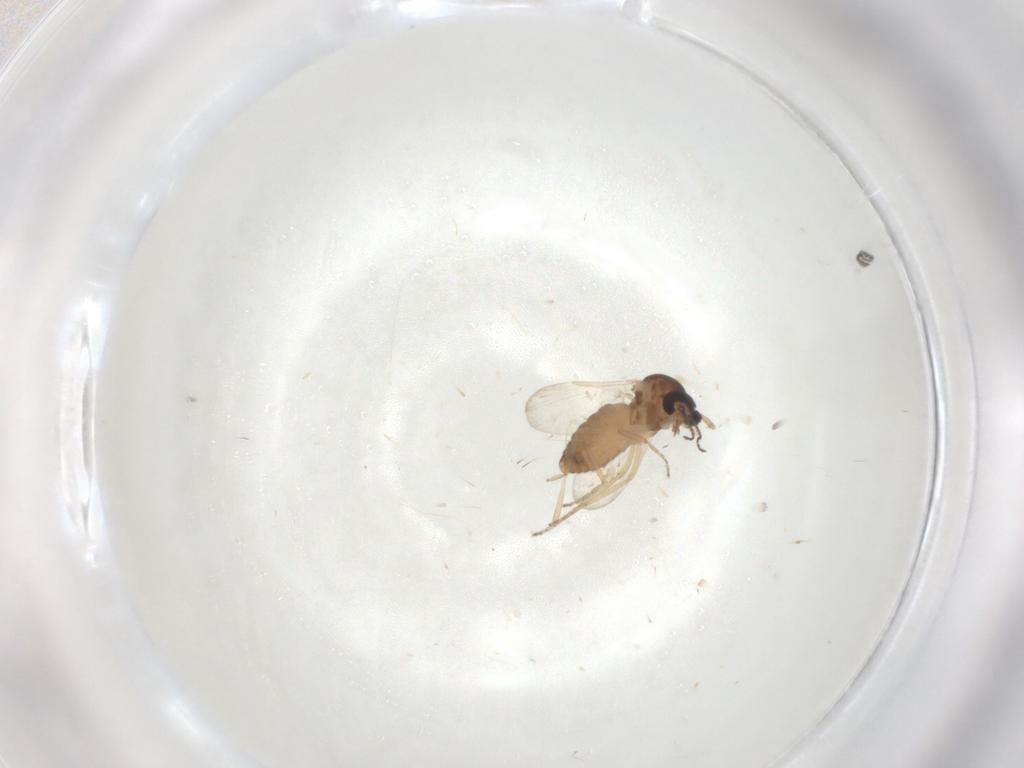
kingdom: Animalia
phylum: Arthropoda
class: Insecta
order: Diptera
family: Ceratopogonidae
